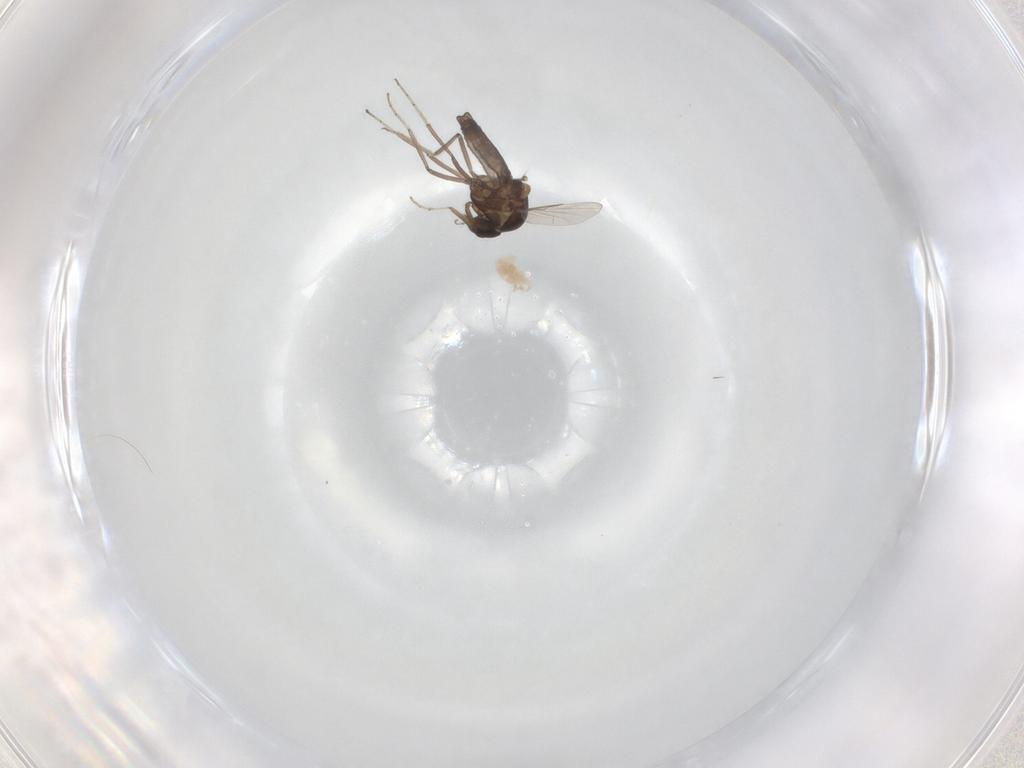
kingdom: Animalia
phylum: Arthropoda
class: Insecta
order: Diptera
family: Ceratopogonidae
